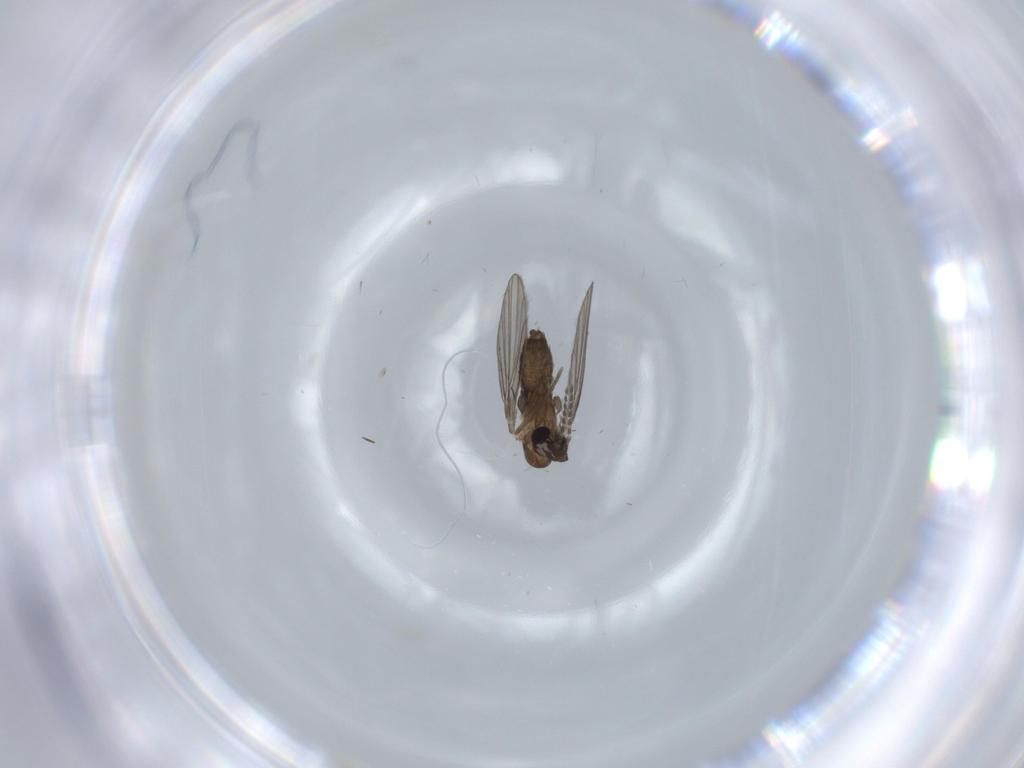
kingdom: Animalia
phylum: Arthropoda
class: Insecta
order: Diptera
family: Psychodidae
